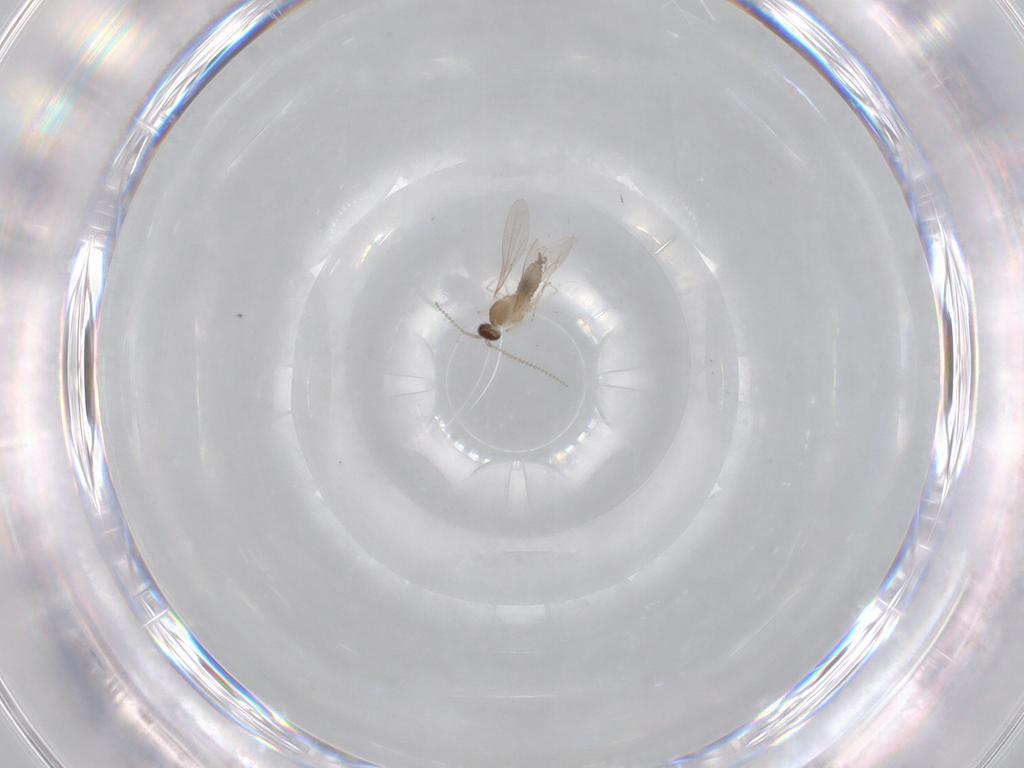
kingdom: Animalia
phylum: Arthropoda
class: Insecta
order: Diptera
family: Cecidomyiidae
